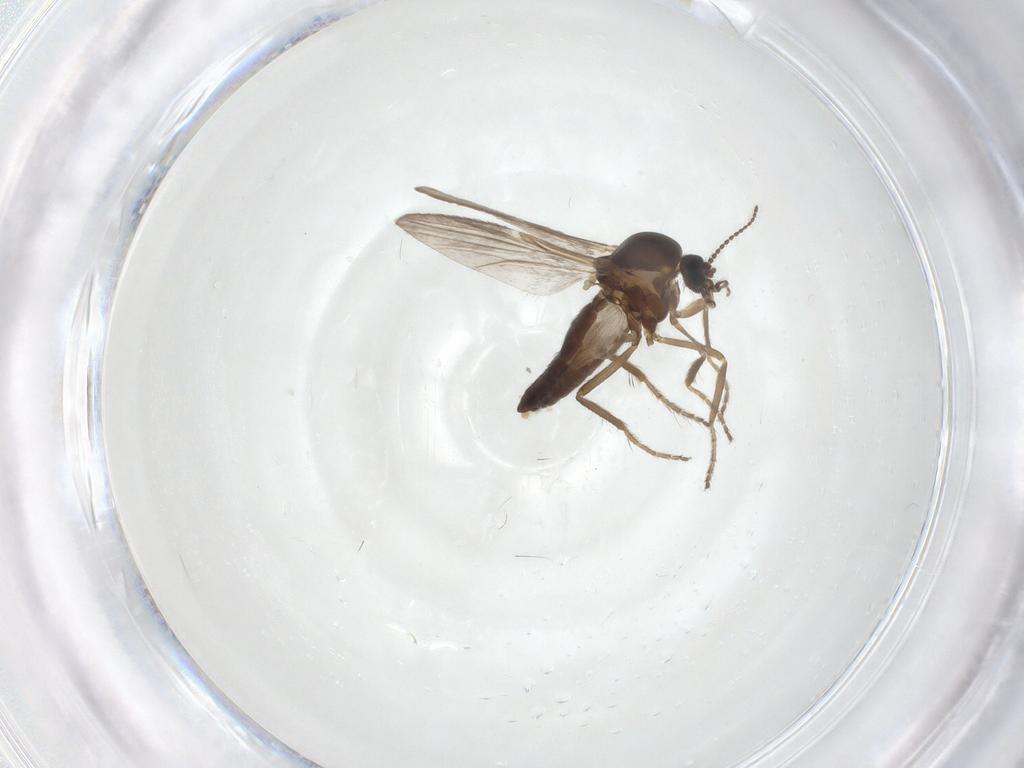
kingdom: Animalia
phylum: Arthropoda
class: Insecta
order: Diptera
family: Ceratopogonidae
